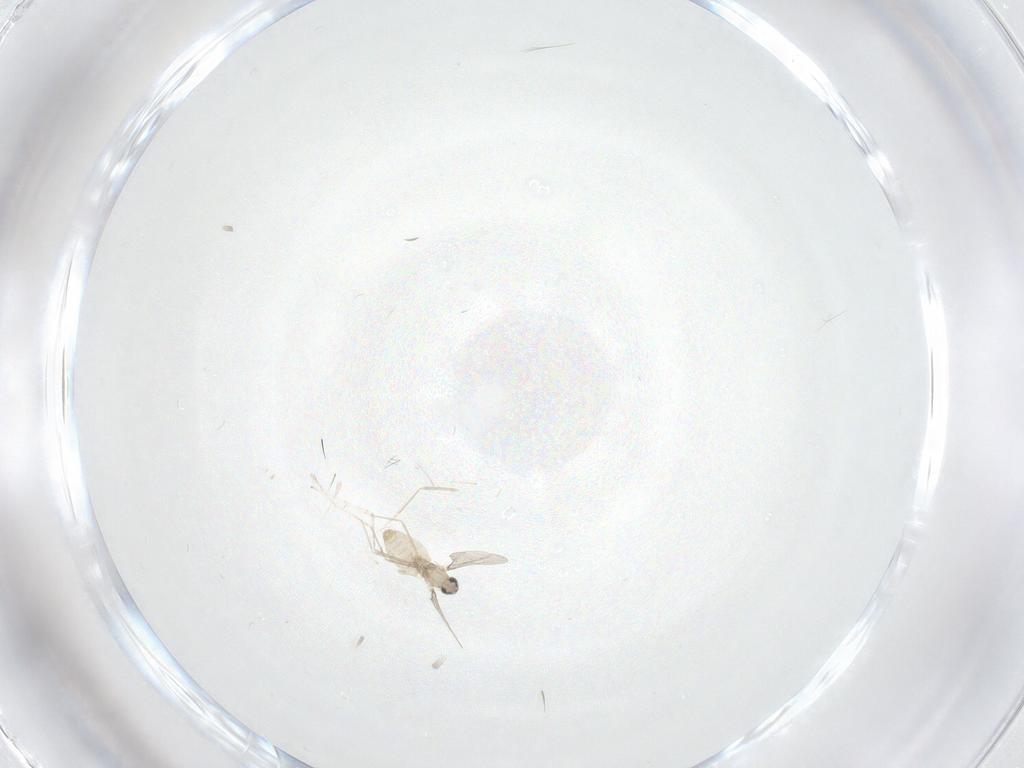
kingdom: Animalia
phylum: Arthropoda
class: Insecta
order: Diptera
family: Cecidomyiidae
